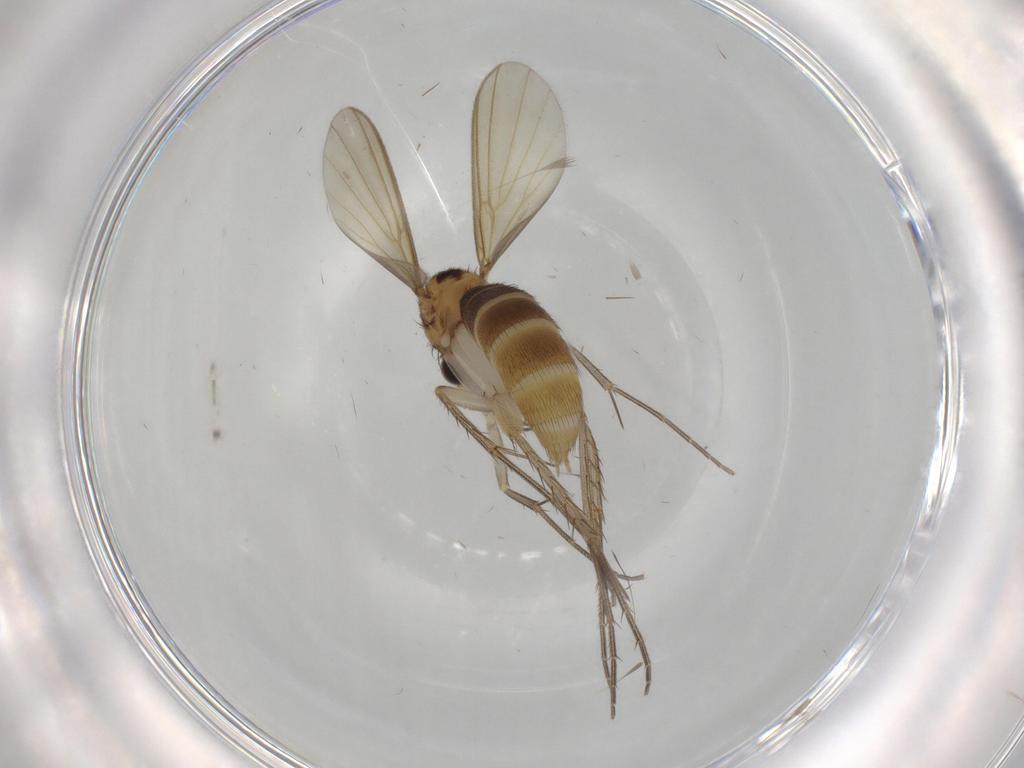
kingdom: Animalia
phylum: Arthropoda
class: Insecta
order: Diptera
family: Mycetophilidae
